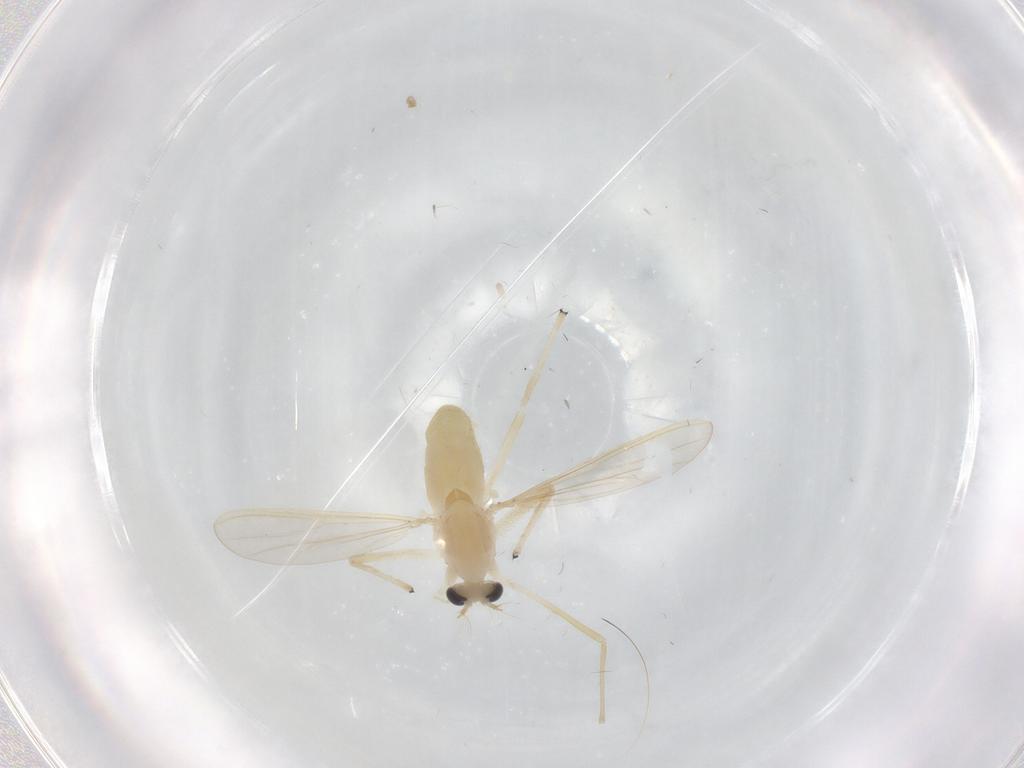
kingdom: Animalia
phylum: Arthropoda
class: Insecta
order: Diptera
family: Chironomidae
